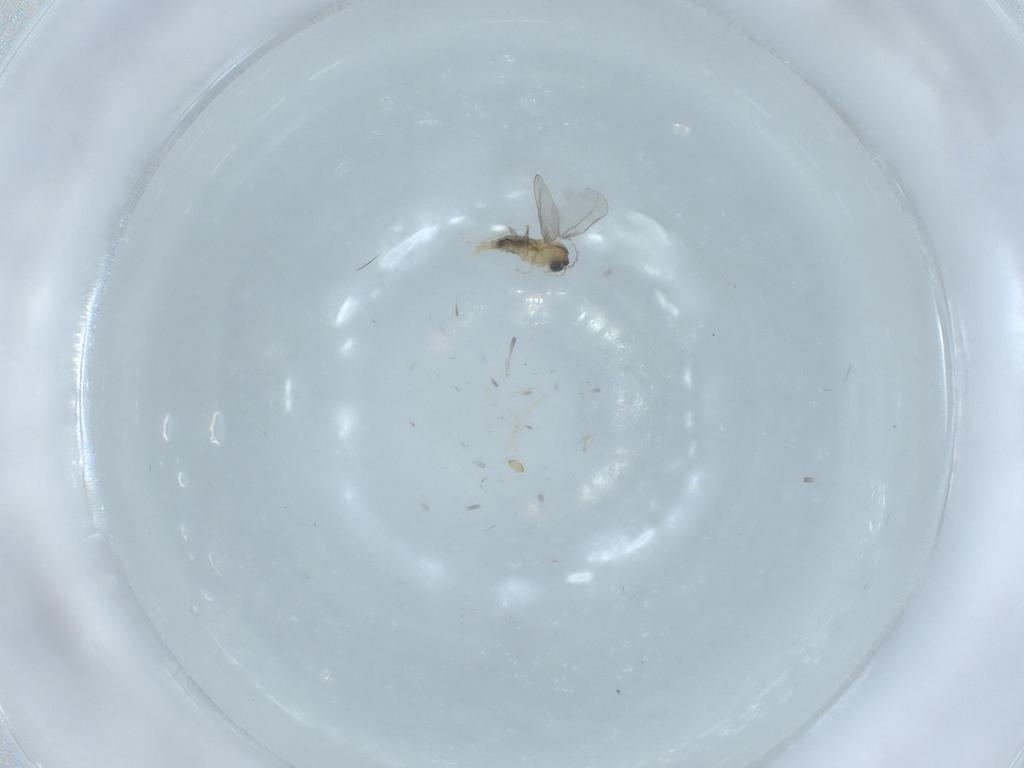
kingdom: Animalia
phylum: Arthropoda
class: Insecta
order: Diptera
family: Cecidomyiidae
